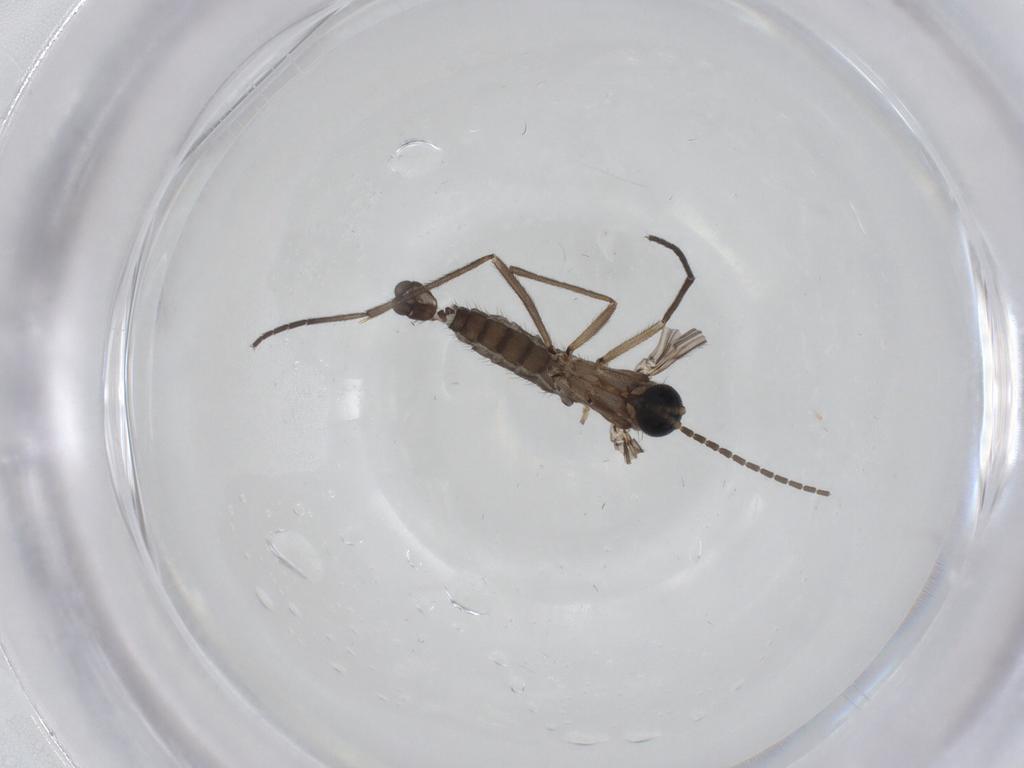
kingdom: Animalia
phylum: Arthropoda
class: Insecta
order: Diptera
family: Sciaridae
